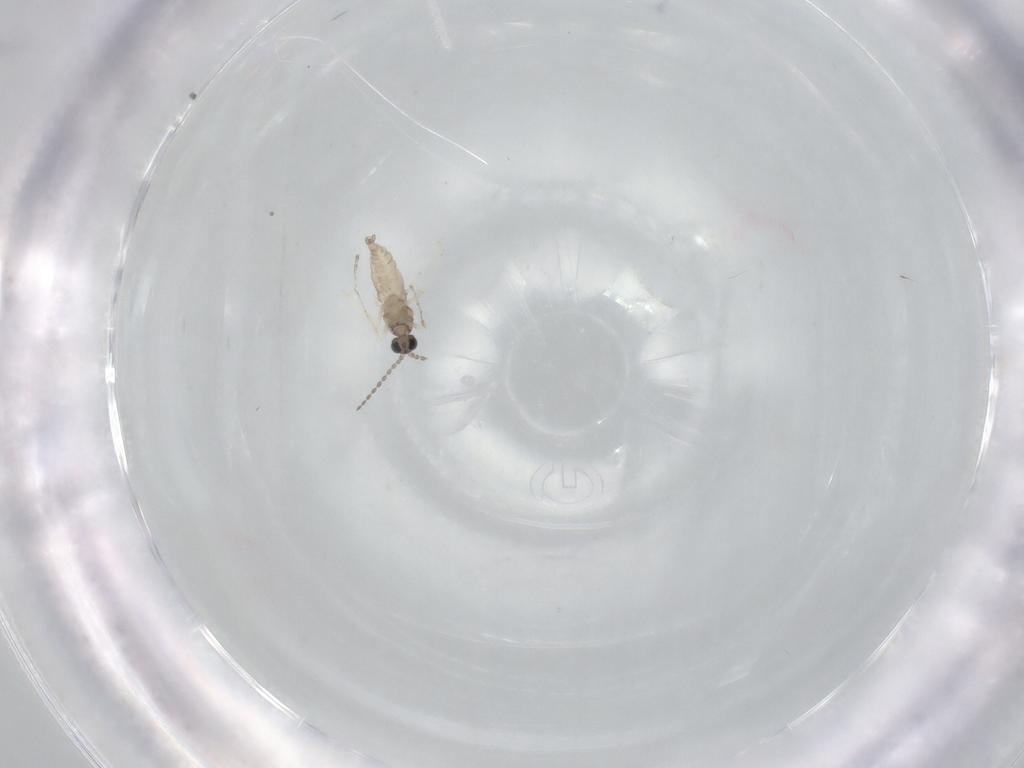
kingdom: Animalia
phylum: Arthropoda
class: Insecta
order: Diptera
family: Cecidomyiidae
